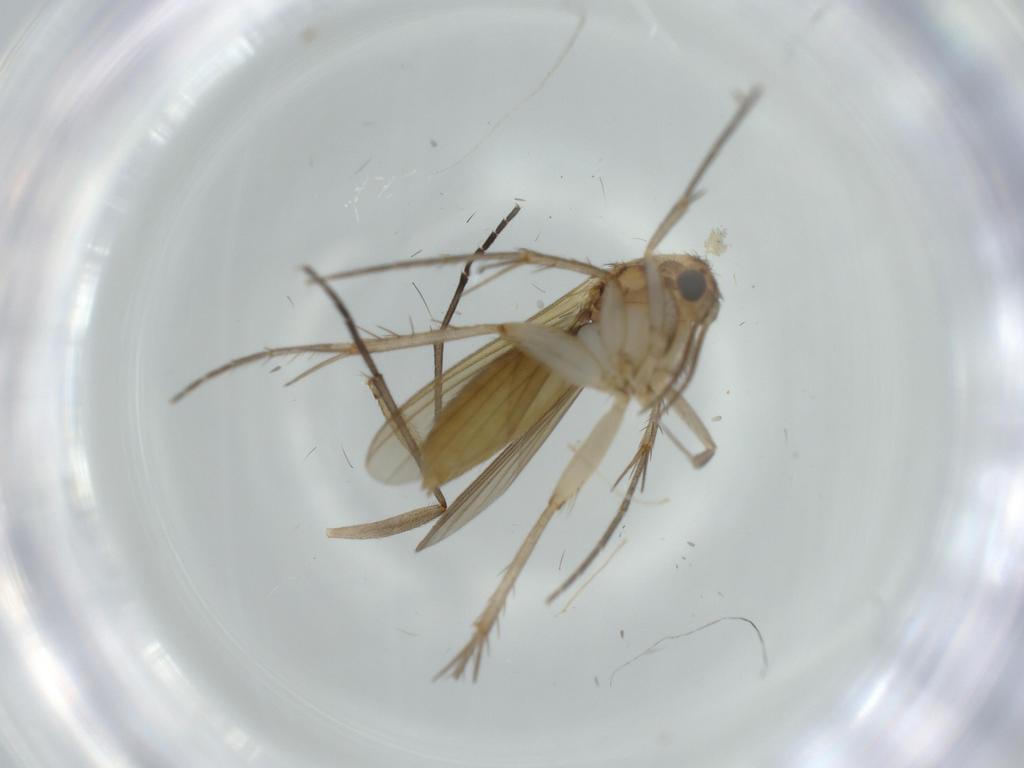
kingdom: Animalia
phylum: Arthropoda
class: Insecta
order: Diptera
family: Mycetophilidae
